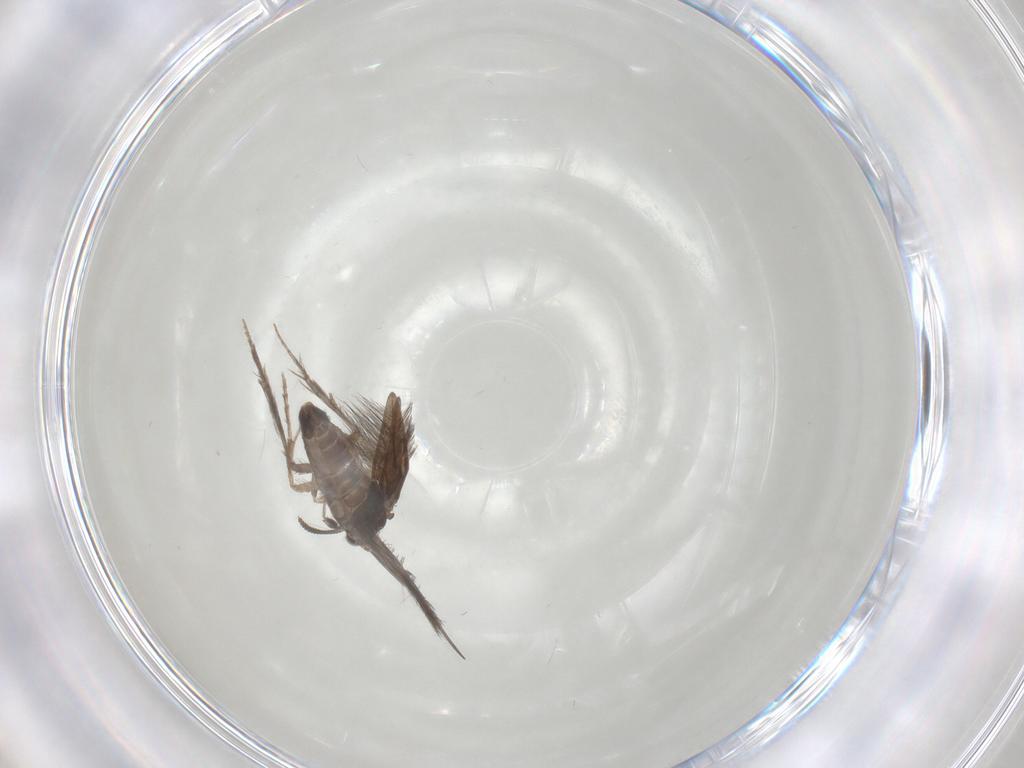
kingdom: Animalia
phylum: Arthropoda
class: Insecta
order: Trichoptera
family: Hydroptilidae
